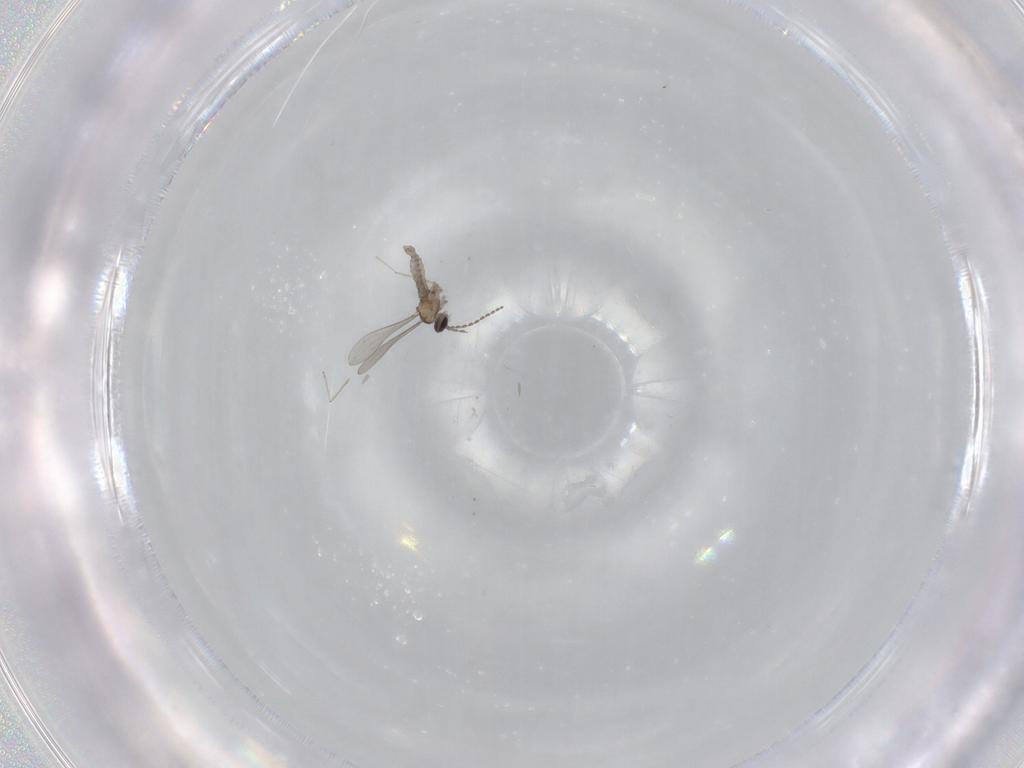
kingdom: Animalia
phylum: Arthropoda
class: Insecta
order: Diptera
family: Cecidomyiidae
